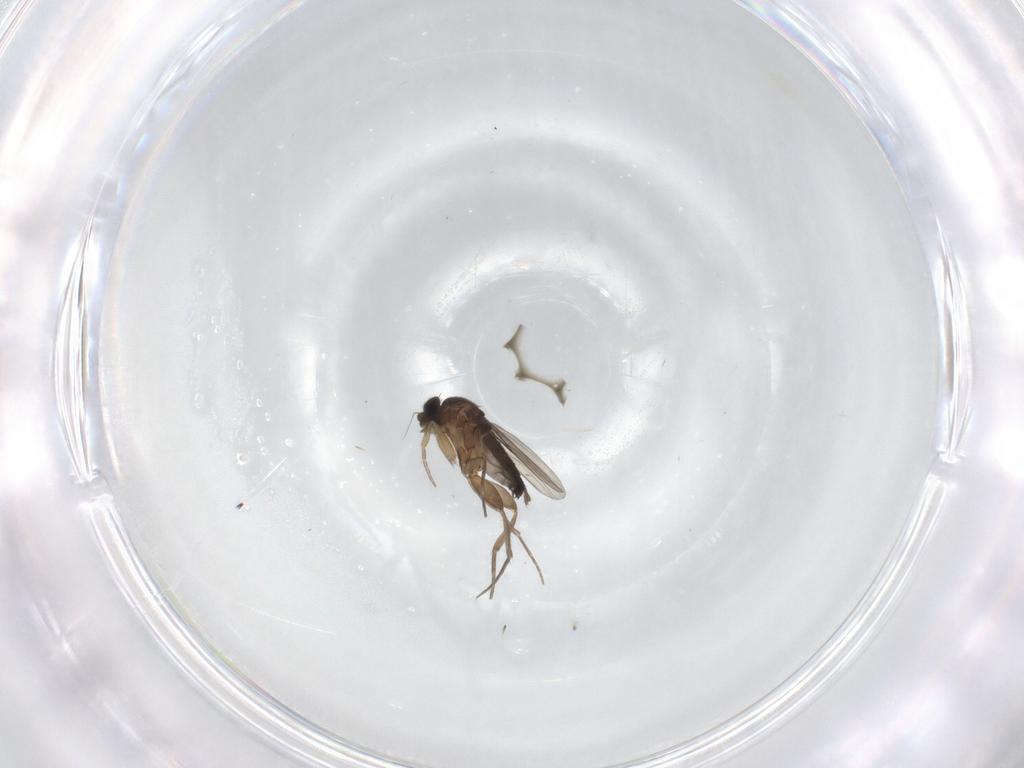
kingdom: Animalia
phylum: Arthropoda
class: Insecta
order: Diptera
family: Phoridae
